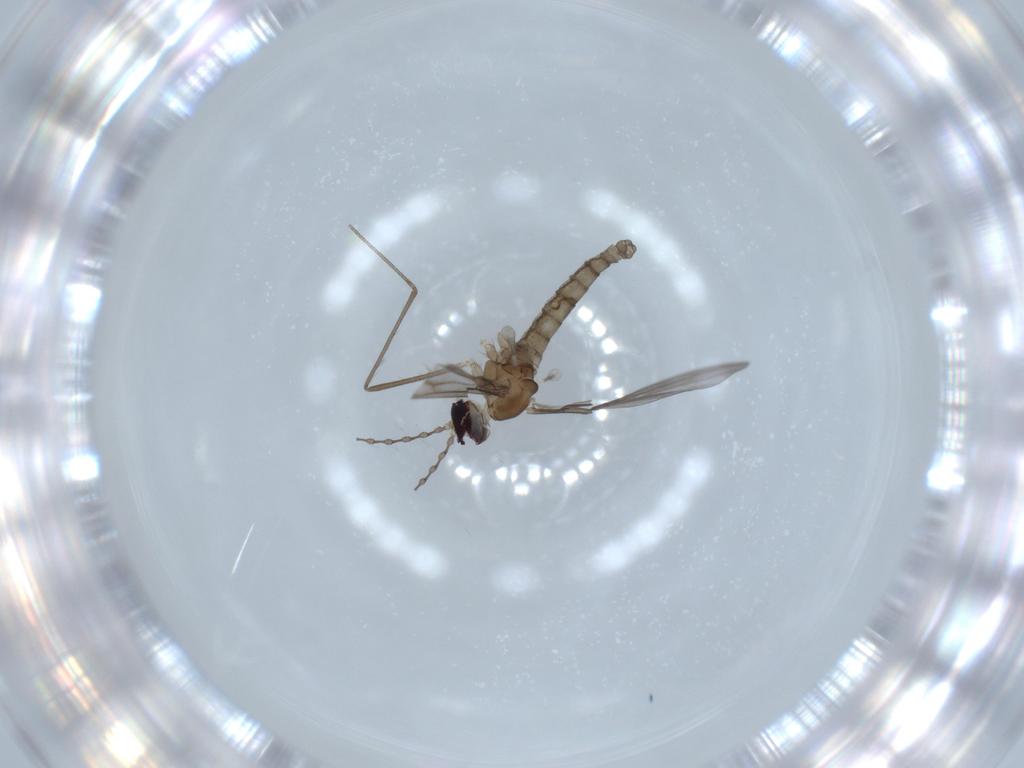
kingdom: Animalia
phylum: Arthropoda
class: Insecta
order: Diptera
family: Cecidomyiidae
